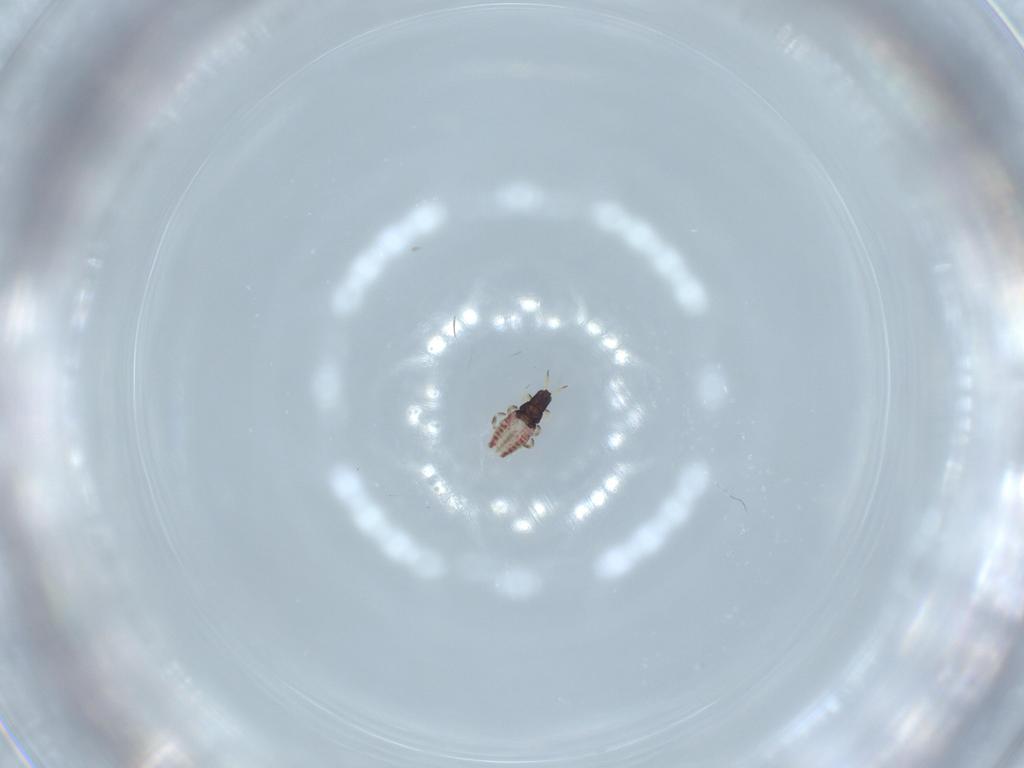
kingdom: Animalia
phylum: Arthropoda
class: Insecta
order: Thysanoptera
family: Phlaeothripidae
